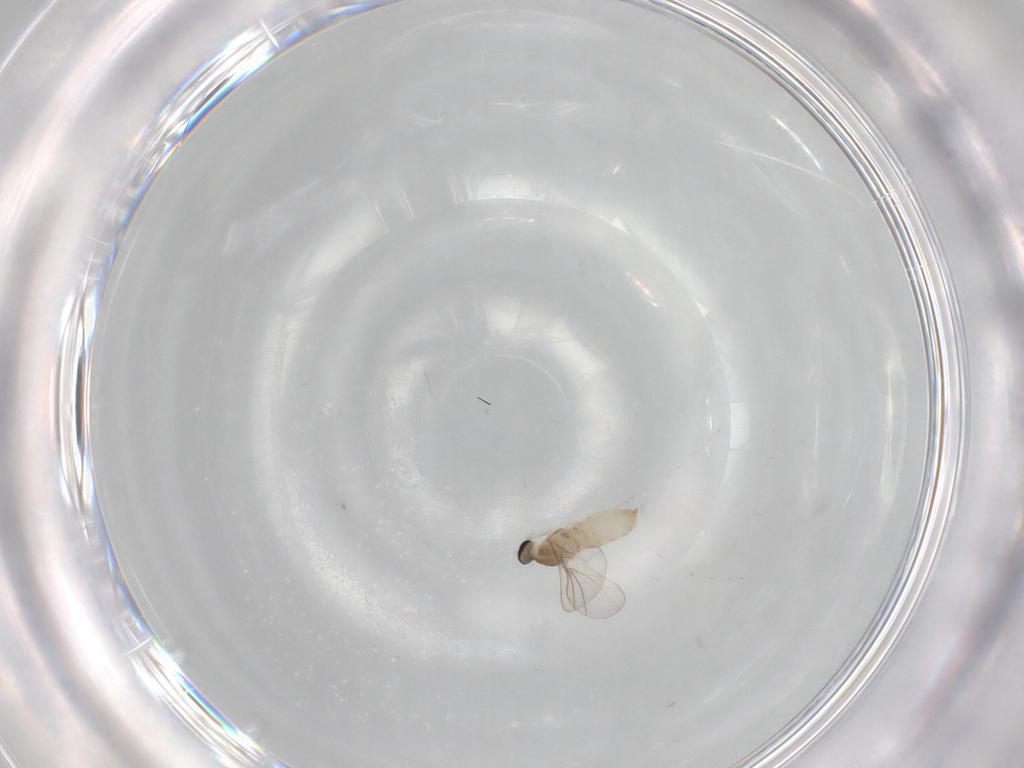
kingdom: Animalia
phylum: Arthropoda
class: Insecta
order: Diptera
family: Cecidomyiidae
